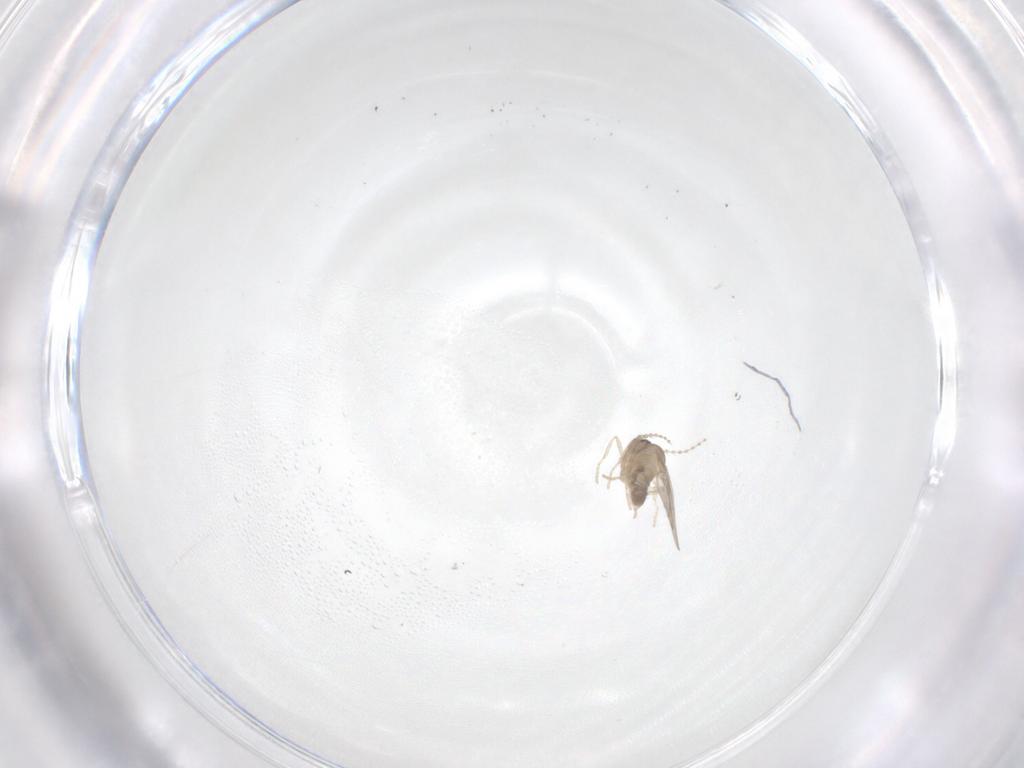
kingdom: Animalia
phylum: Arthropoda
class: Insecta
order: Diptera
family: Cecidomyiidae
